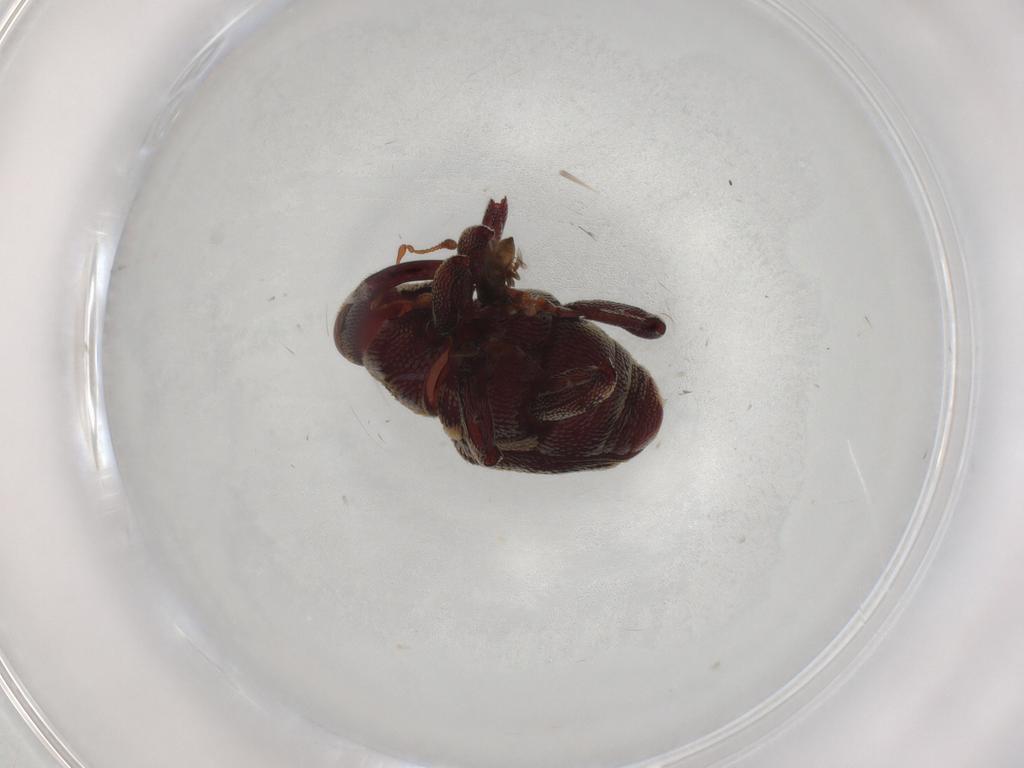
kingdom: Animalia
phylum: Arthropoda
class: Insecta
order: Coleoptera
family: Curculionidae
